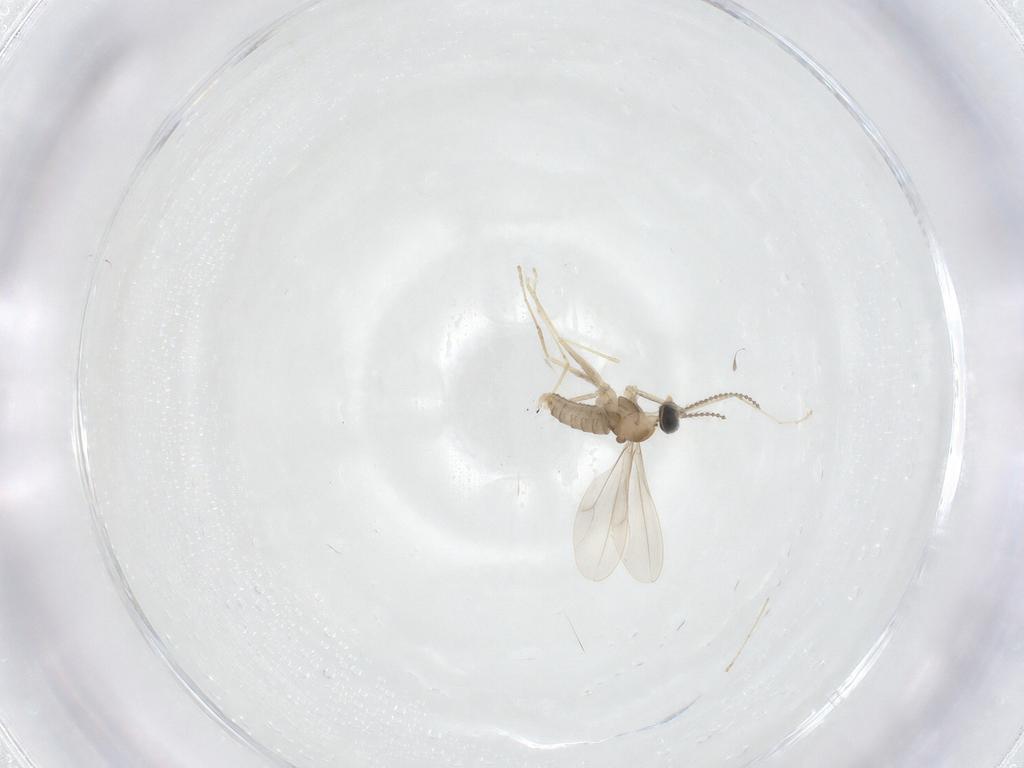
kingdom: Animalia
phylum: Arthropoda
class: Insecta
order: Diptera
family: Cecidomyiidae
